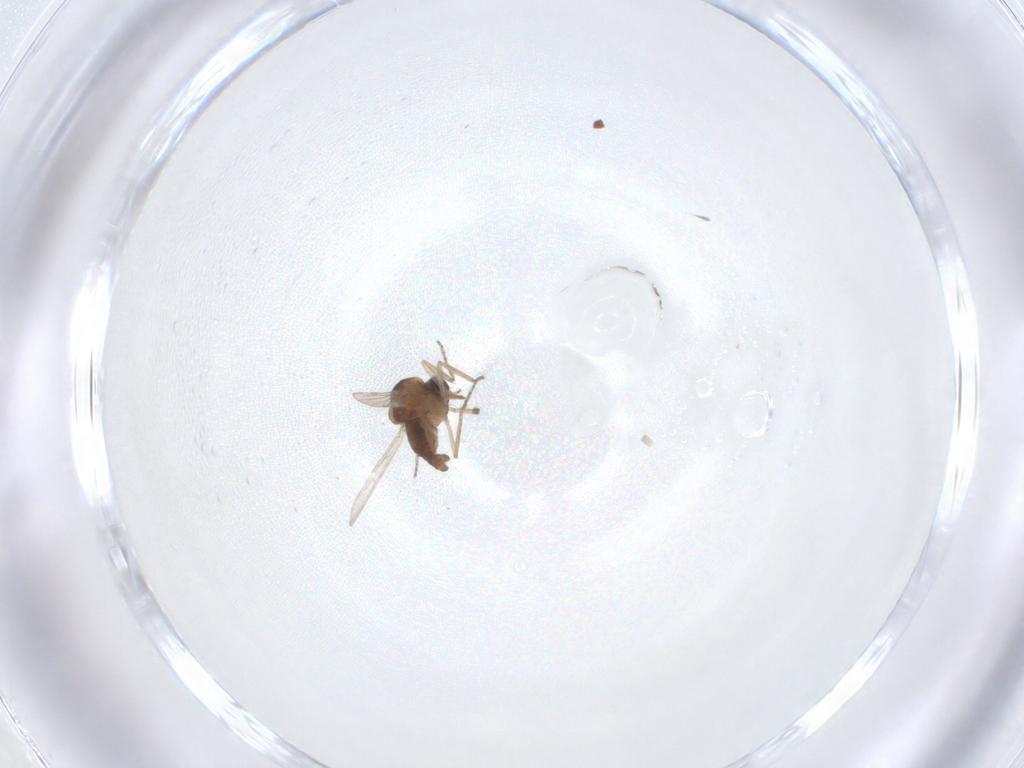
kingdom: Animalia
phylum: Arthropoda
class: Insecta
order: Diptera
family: Ceratopogonidae
